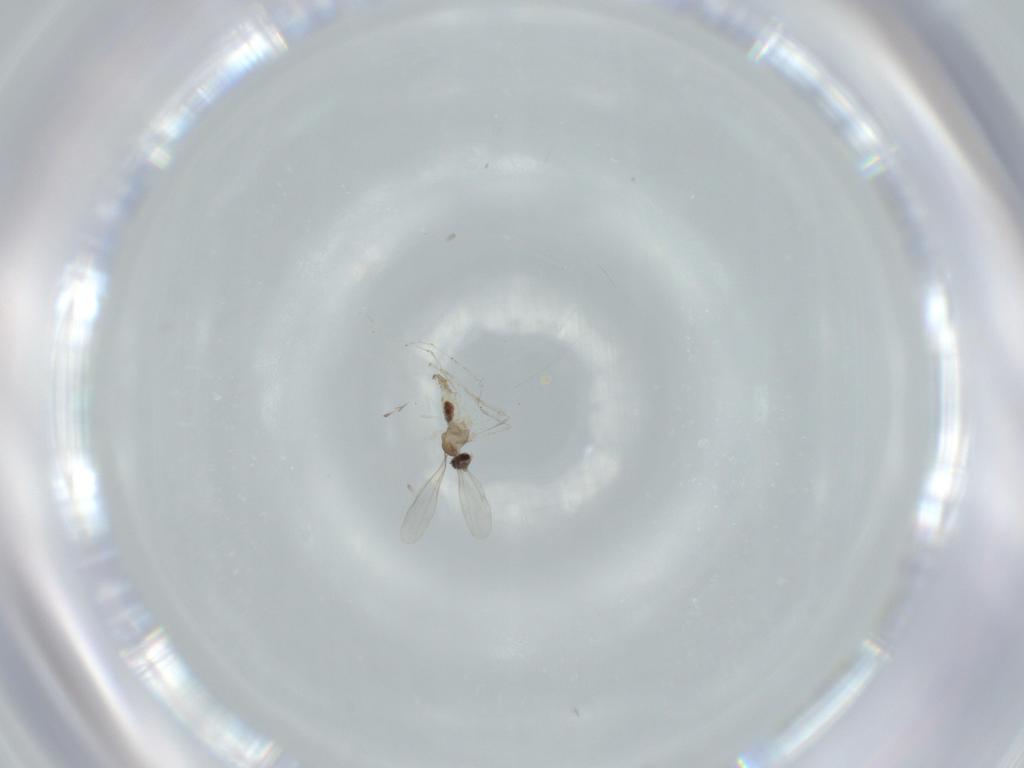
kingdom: Animalia
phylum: Arthropoda
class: Insecta
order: Diptera
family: Cecidomyiidae
